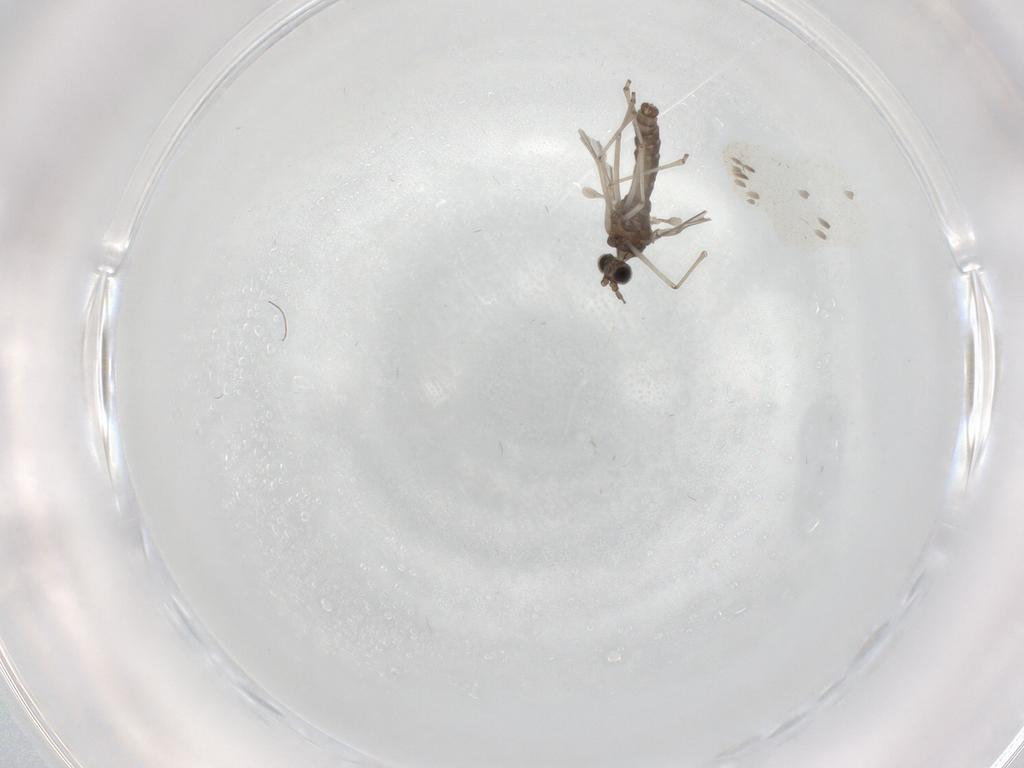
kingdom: Animalia
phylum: Arthropoda
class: Insecta
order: Diptera
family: Cecidomyiidae
